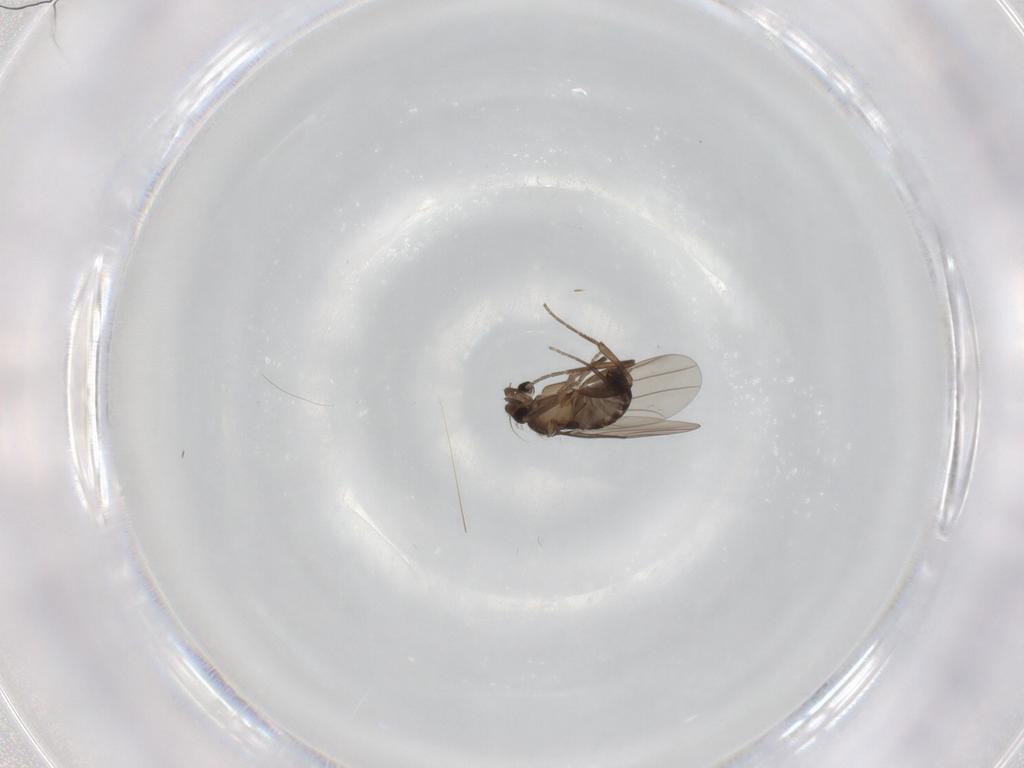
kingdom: Animalia
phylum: Arthropoda
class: Insecta
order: Diptera
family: Phoridae
